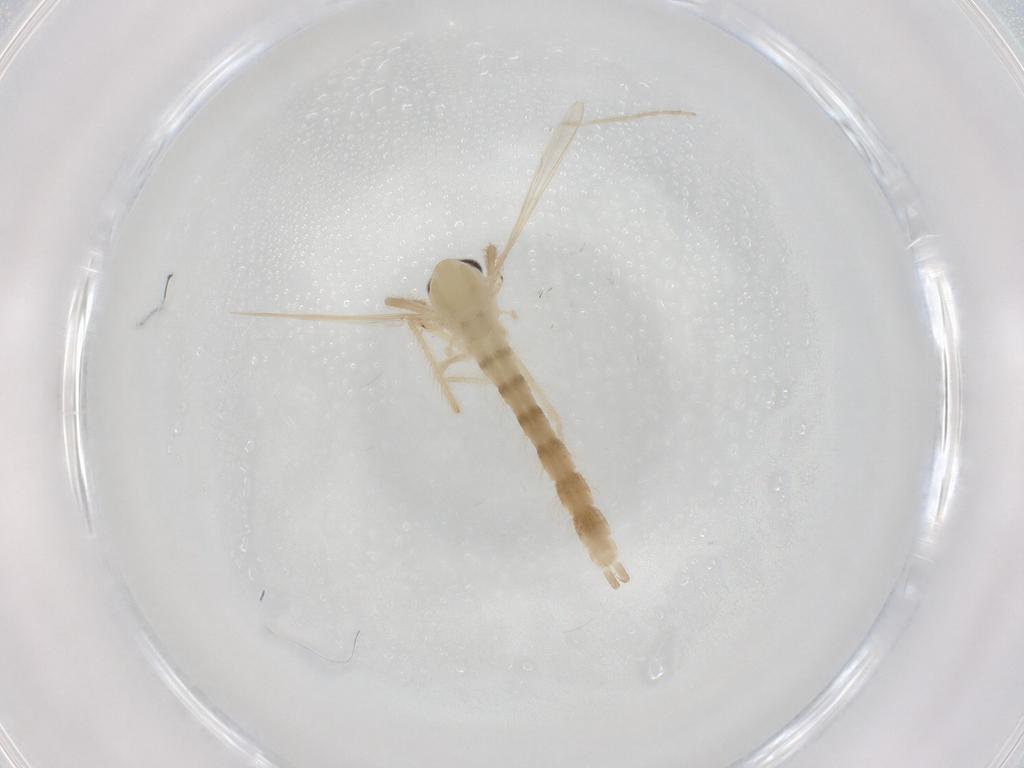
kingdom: Animalia
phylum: Arthropoda
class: Insecta
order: Diptera
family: Chironomidae
